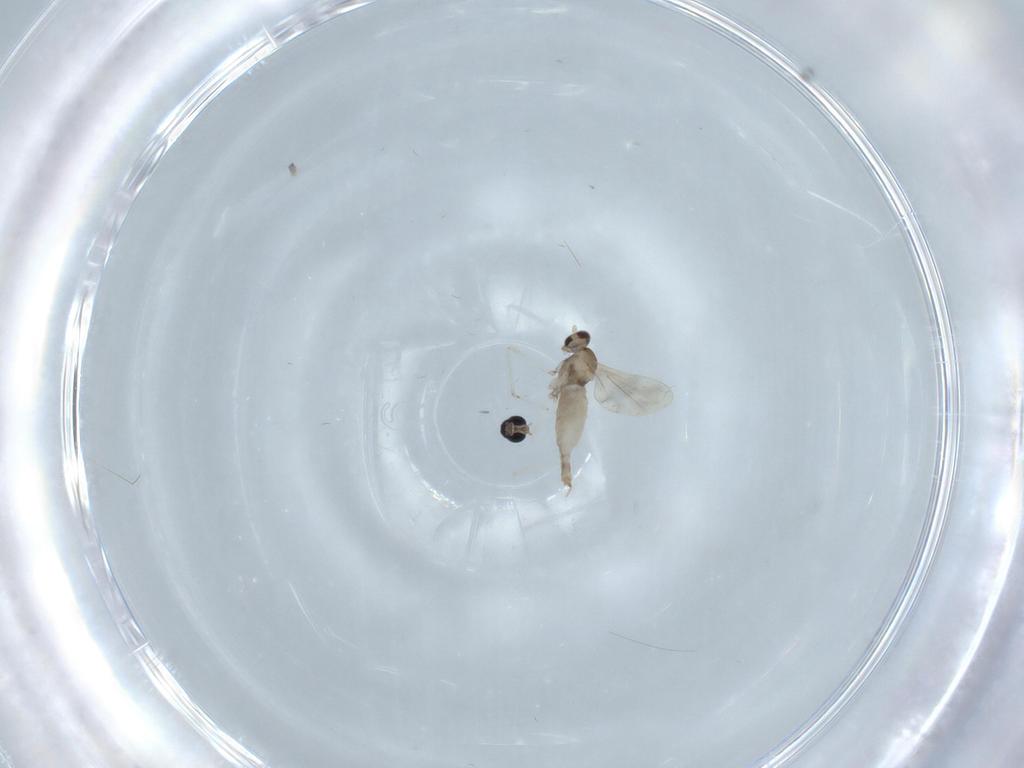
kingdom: Animalia
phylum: Arthropoda
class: Insecta
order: Diptera
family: Cecidomyiidae
